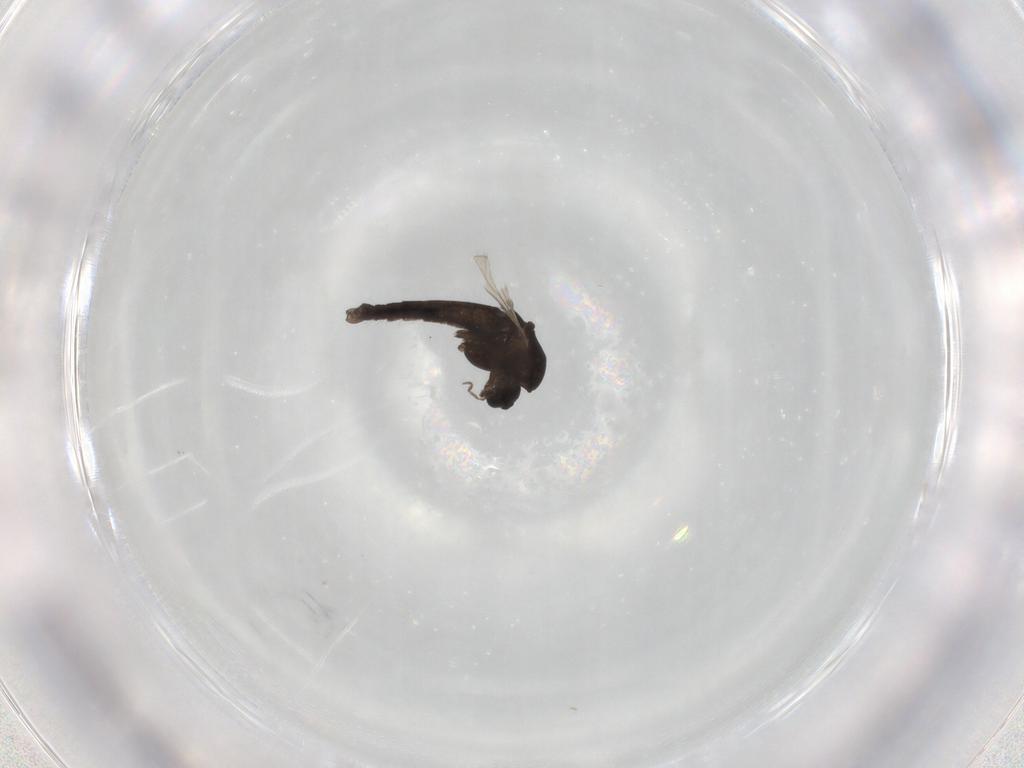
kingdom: Animalia
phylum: Arthropoda
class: Insecta
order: Diptera
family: Chironomidae
